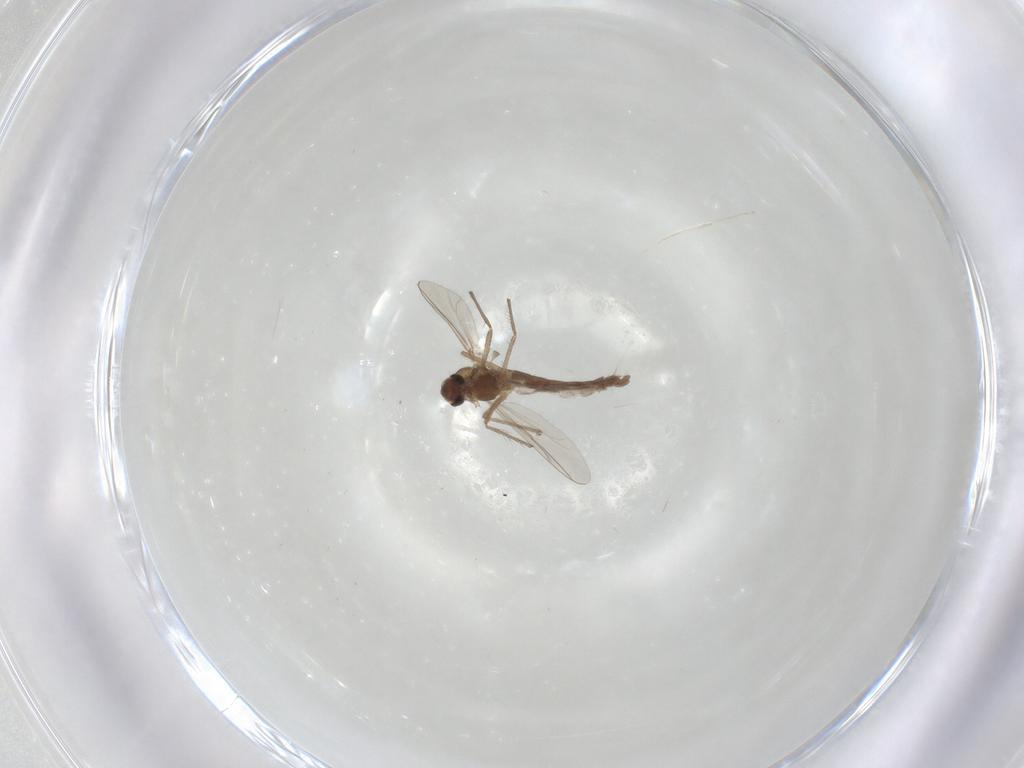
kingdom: Animalia
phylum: Arthropoda
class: Insecta
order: Diptera
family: Chironomidae
